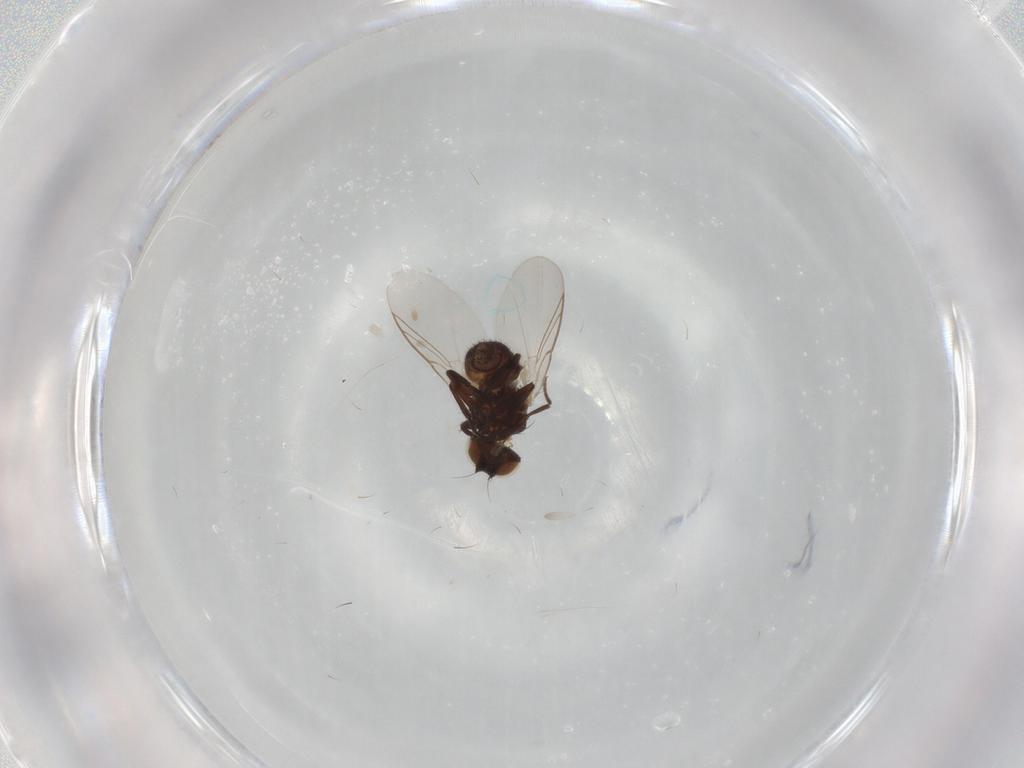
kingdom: Animalia
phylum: Arthropoda
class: Insecta
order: Diptera
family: Agromyzidae
